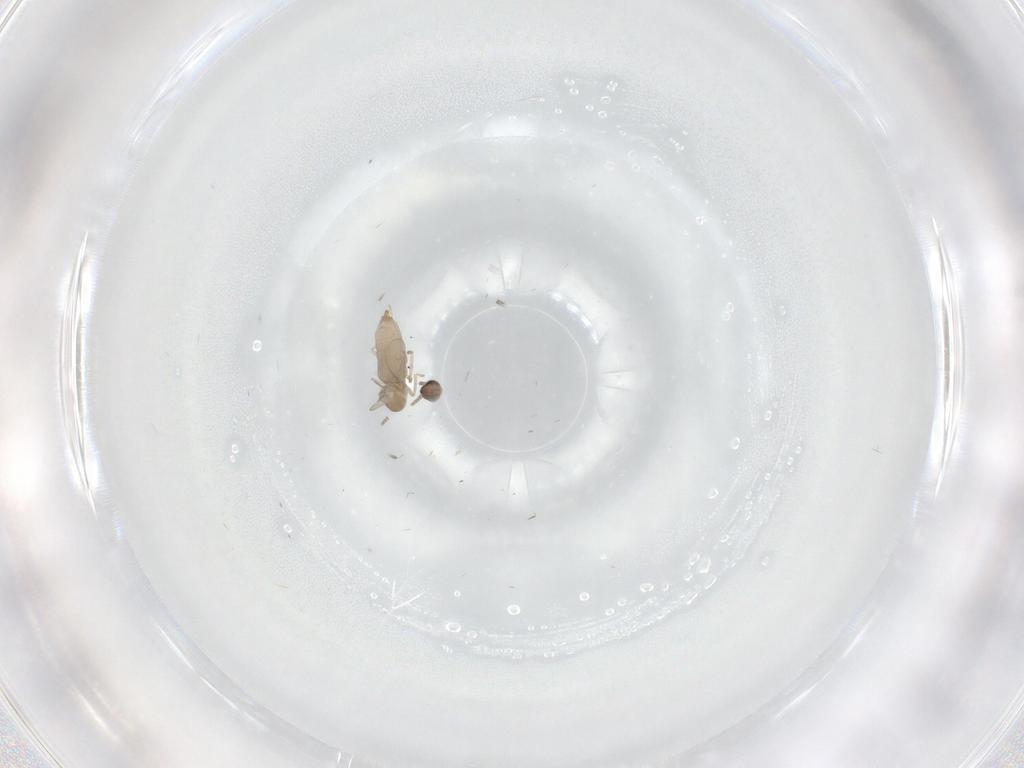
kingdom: Animalia
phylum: Arthropoda
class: Insecta
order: Diptera
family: Cecidomyiidae
